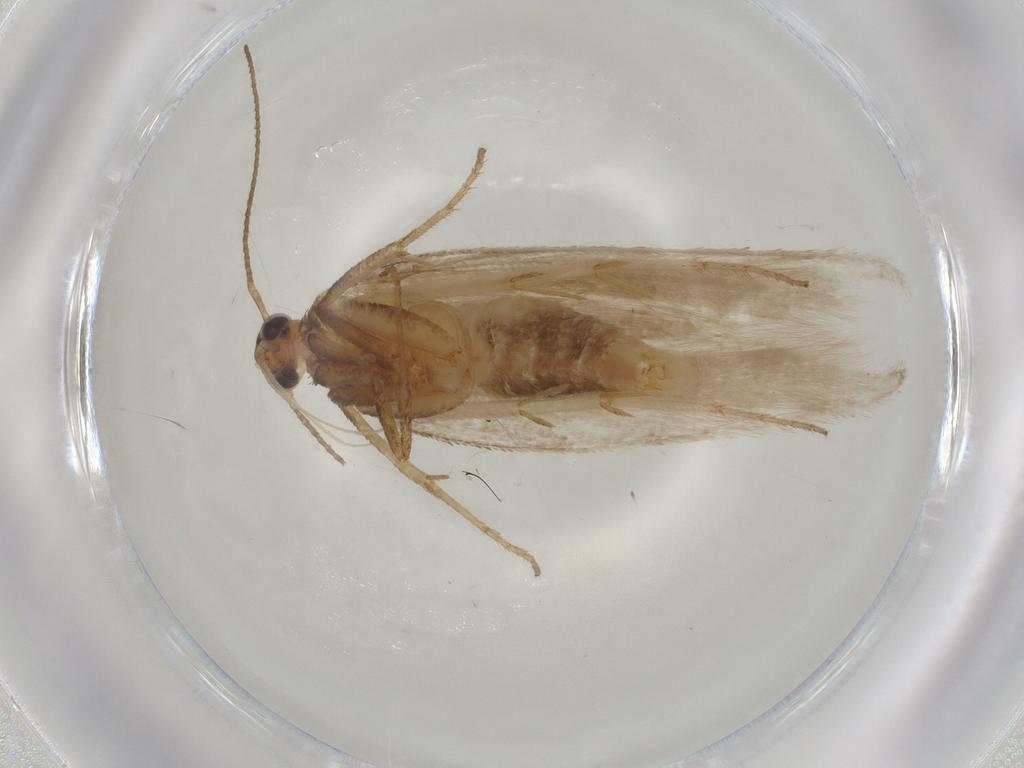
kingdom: Animalia
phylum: Arthropoda
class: Insecta
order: Lepidoptera
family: Gelechiidae
